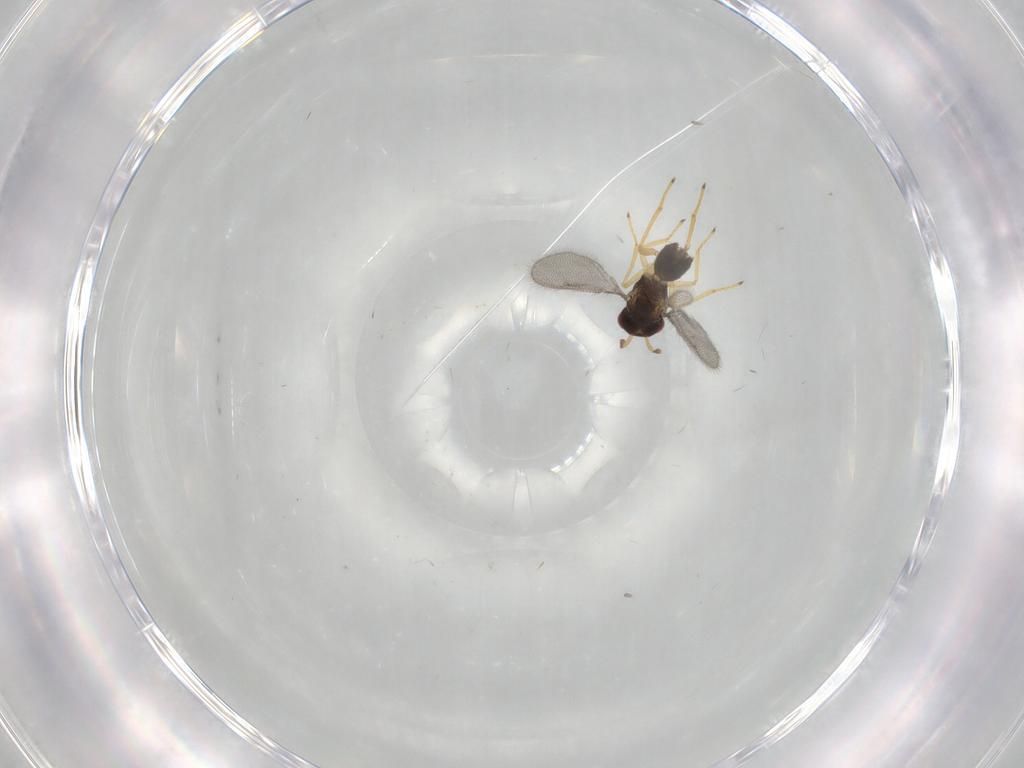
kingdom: Animalia
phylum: Arthropoda
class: Insecta
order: Hymenoptera
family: Eulophidae
